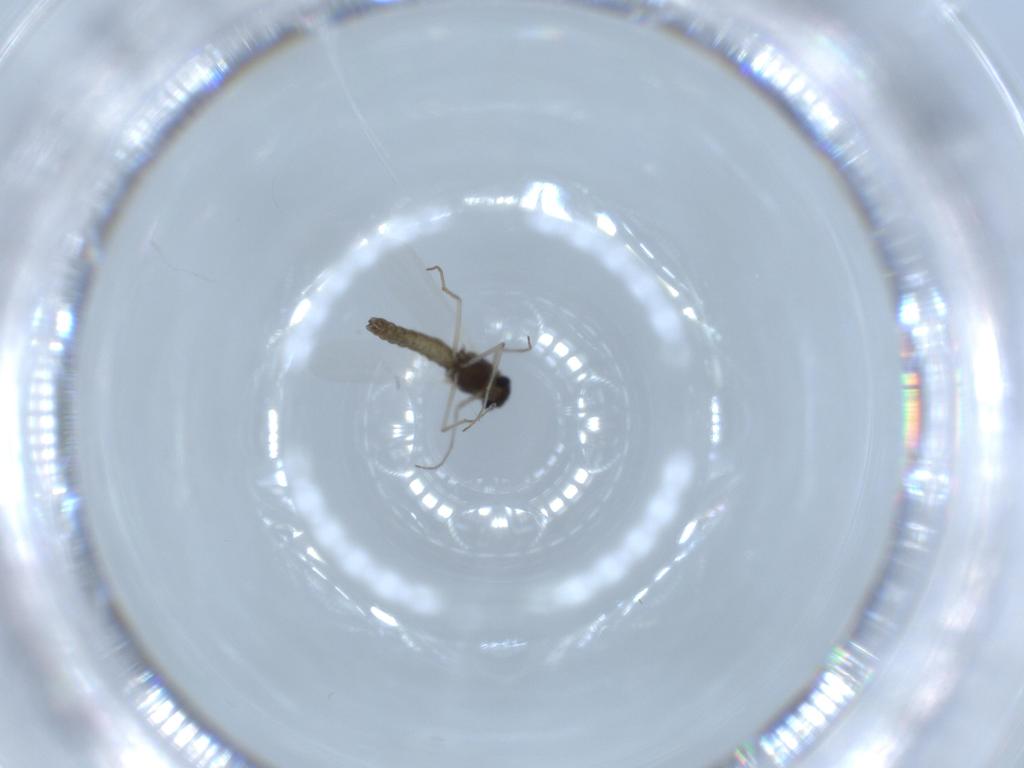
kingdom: Animalia
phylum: Arthropoda
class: Insecta
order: Diptera
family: Chironomidae
